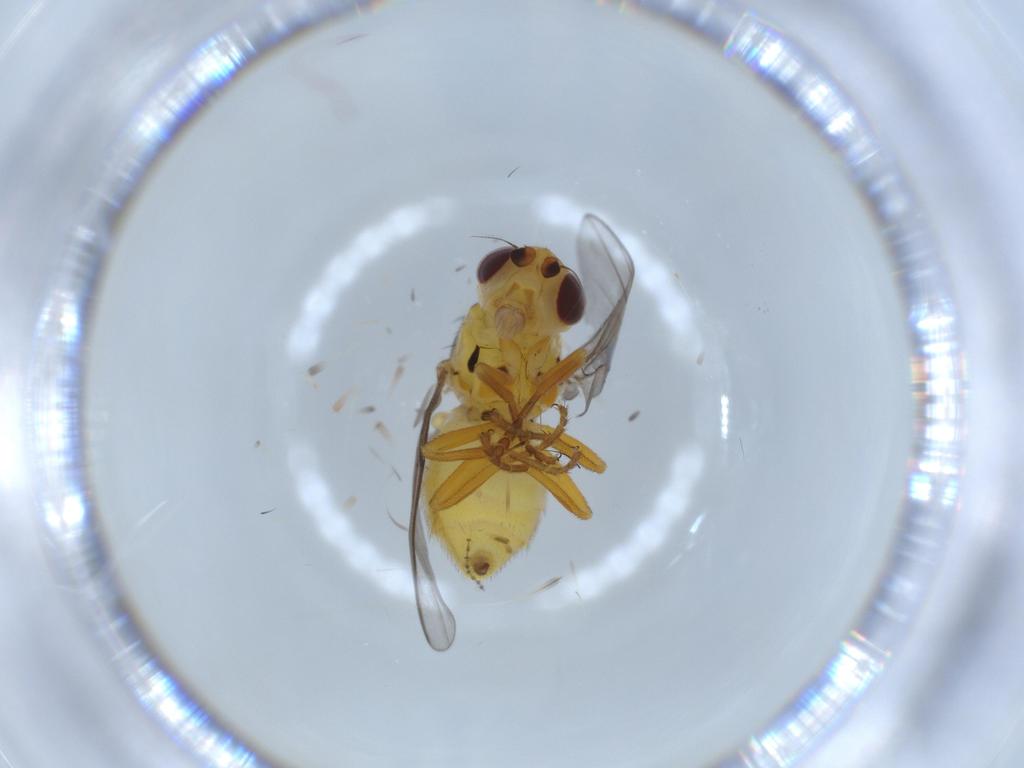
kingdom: Animalia
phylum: Arthropoda
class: Insecta
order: Diptera
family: Chloropidae
